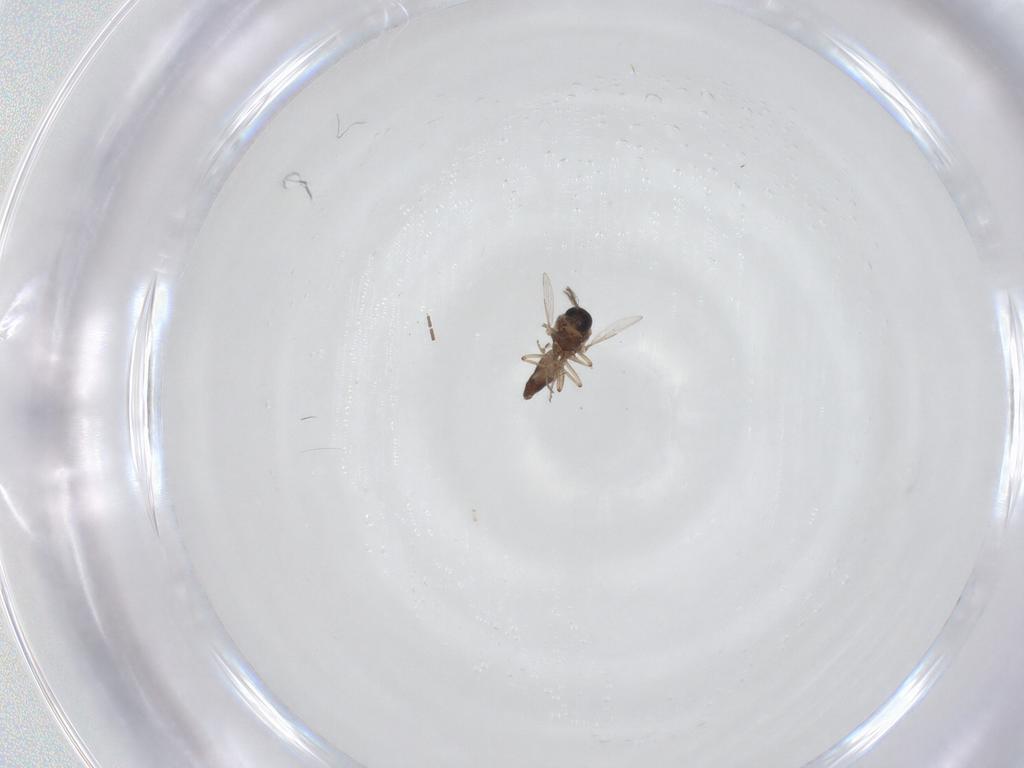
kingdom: Animalia
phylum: Arthropoda
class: Insecta
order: Diptera
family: Ceratopogonidae
